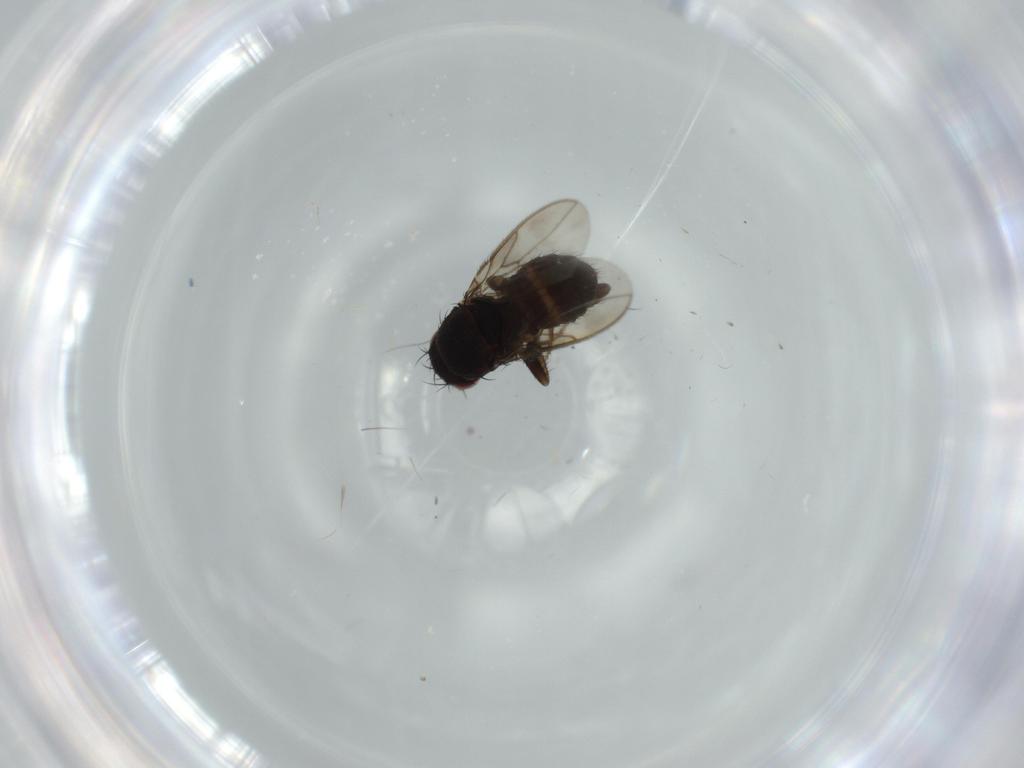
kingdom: Animalia
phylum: Arthropoda
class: Insecta
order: Diptera
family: Sphaeroceridae
